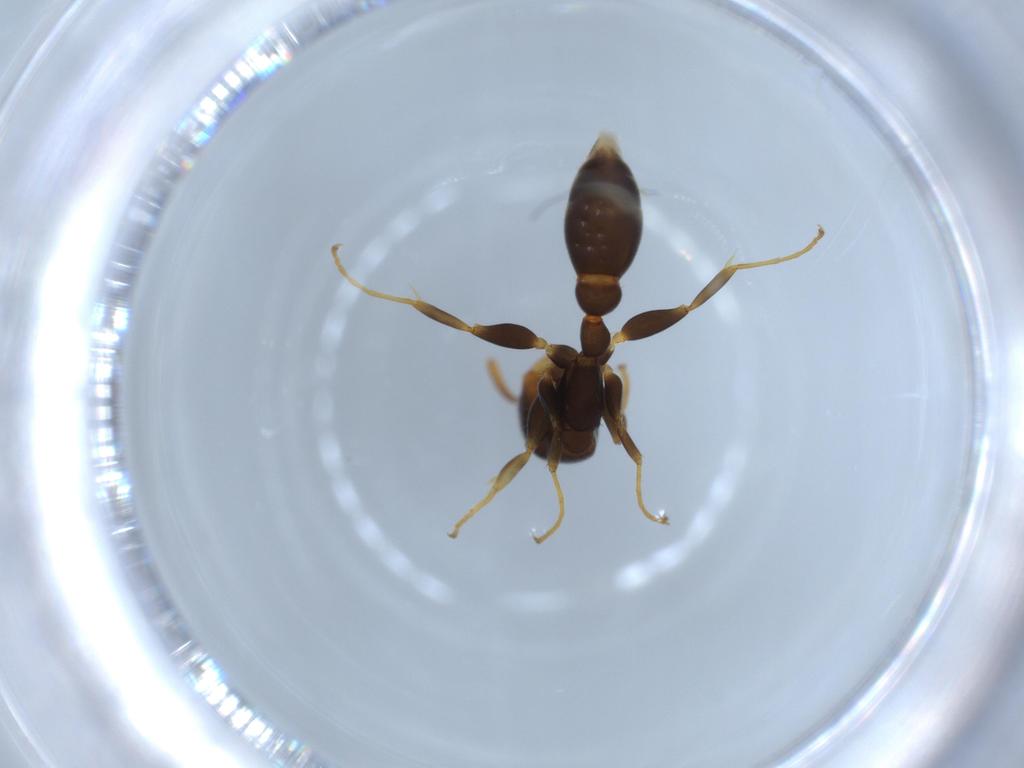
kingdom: Animalia
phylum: Arthropoda
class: Insecta
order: Hymenoptera
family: Formicidae
